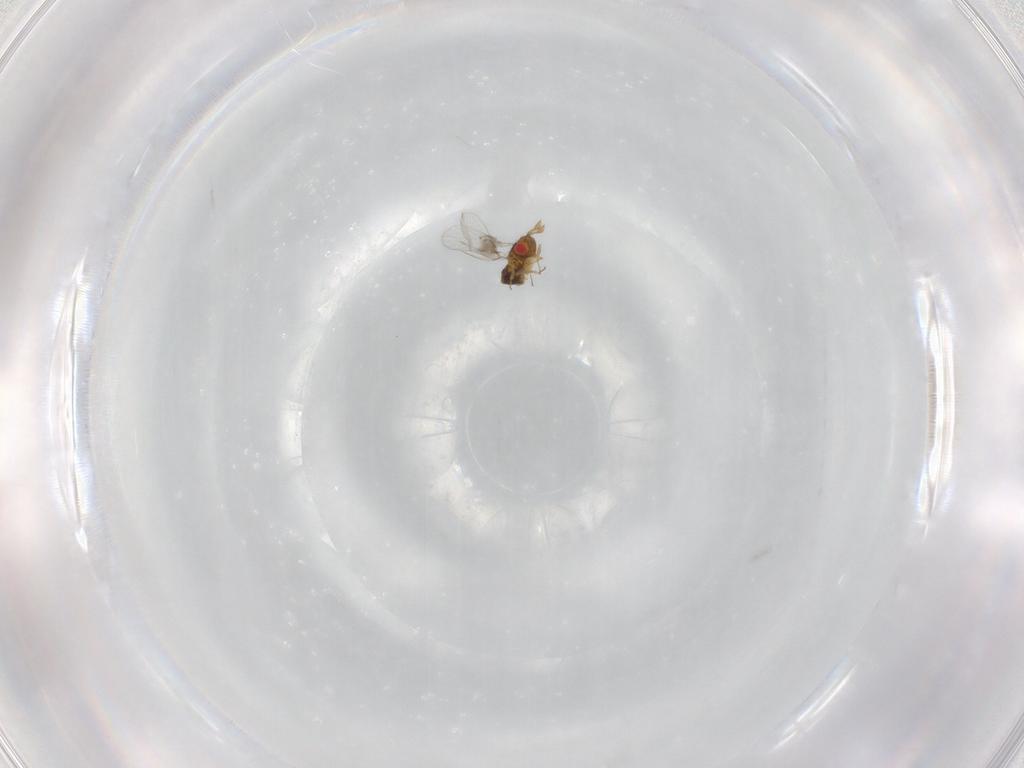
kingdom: Animalia
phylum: Arthropoda
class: Insecta
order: Hymenoptera
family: Trichogrammatidae
